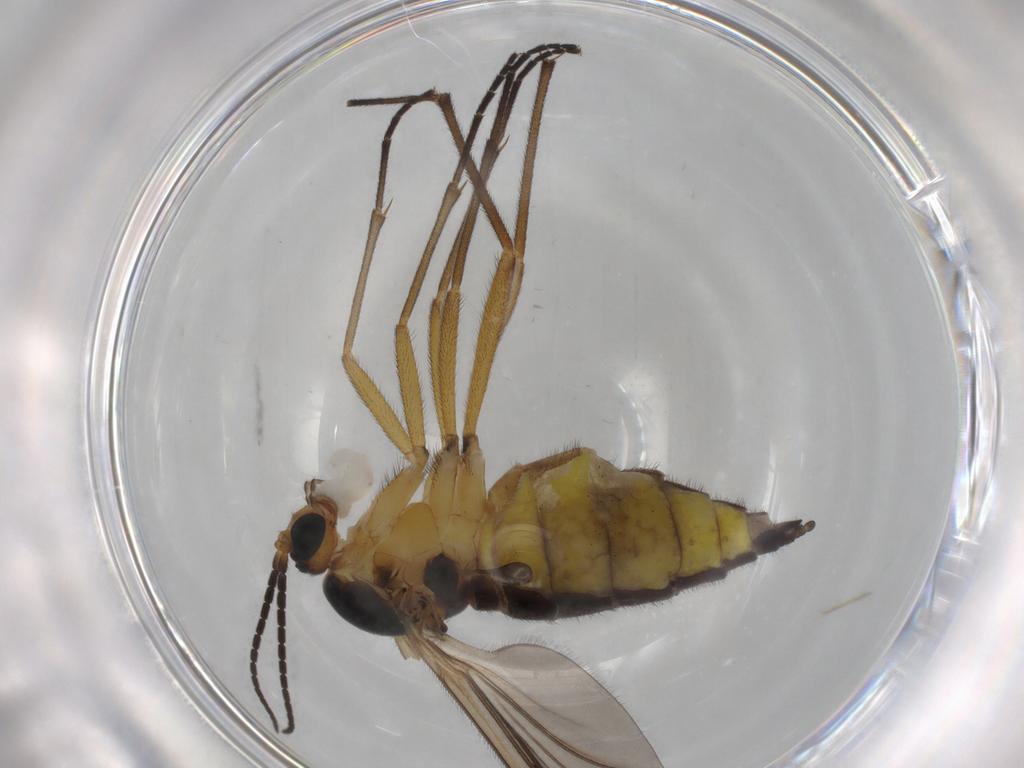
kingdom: Animalia
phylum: Arthropoda
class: Insecta
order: Diptera
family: Sciaridae
